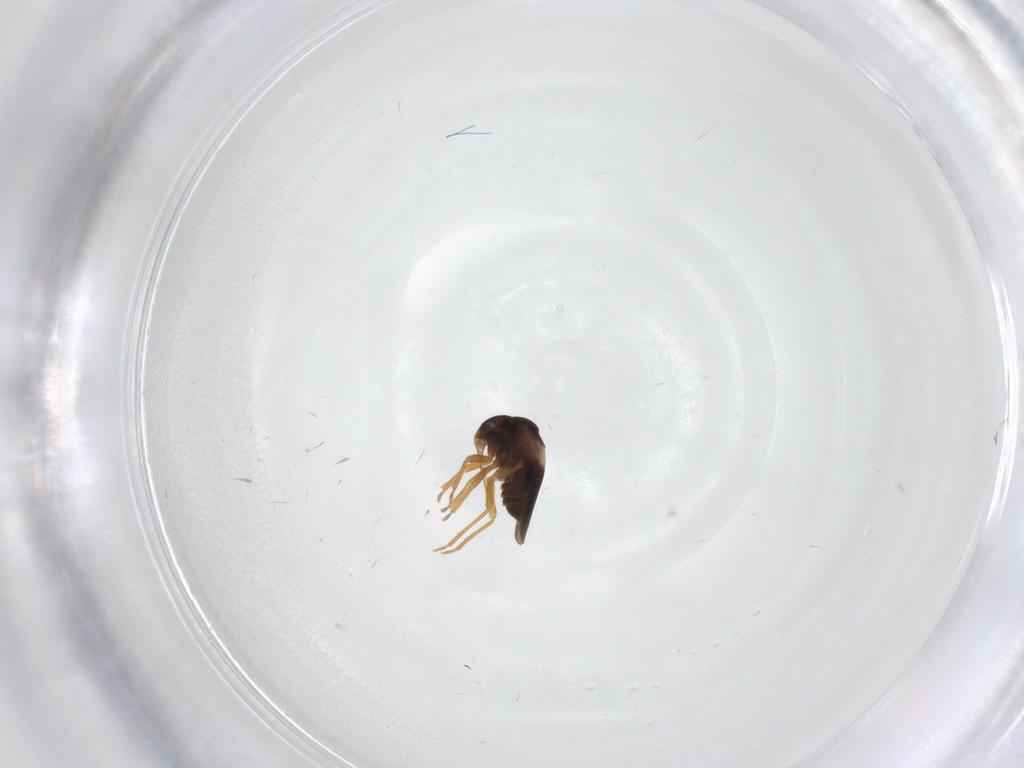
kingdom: Animalia
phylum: Arthropoda
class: Insecta
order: Hemiptera
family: Schizopteridae
